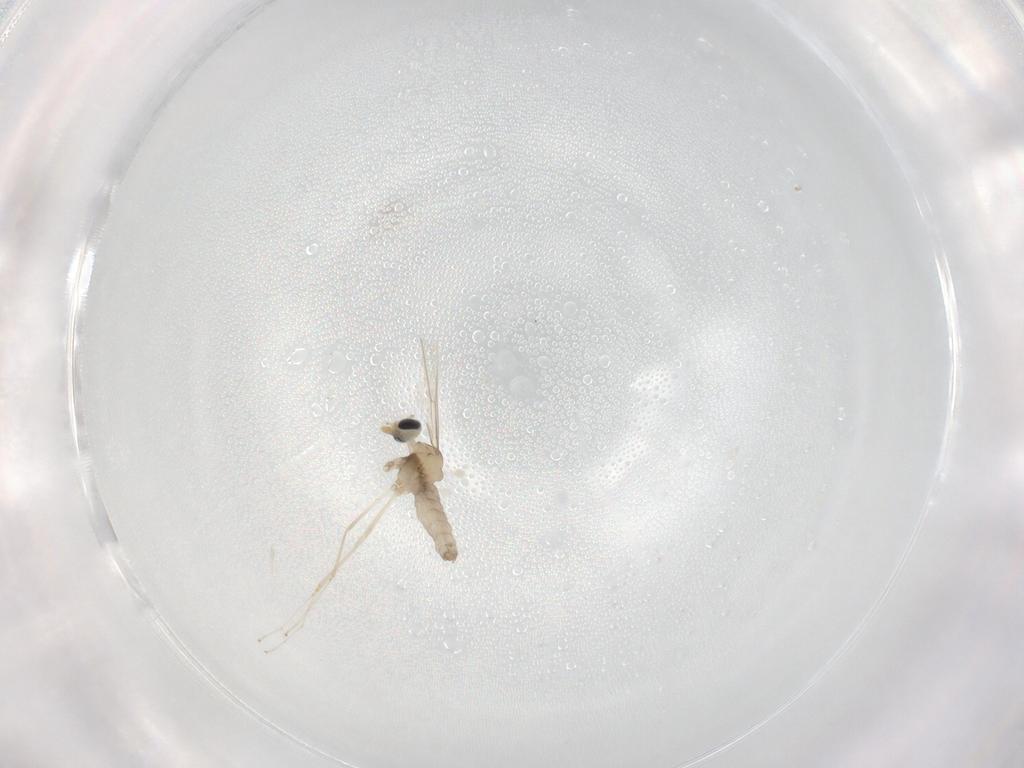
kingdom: Animalia
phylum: Arthropoda
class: Insecta
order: Diptera
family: Cecidomyiidae
